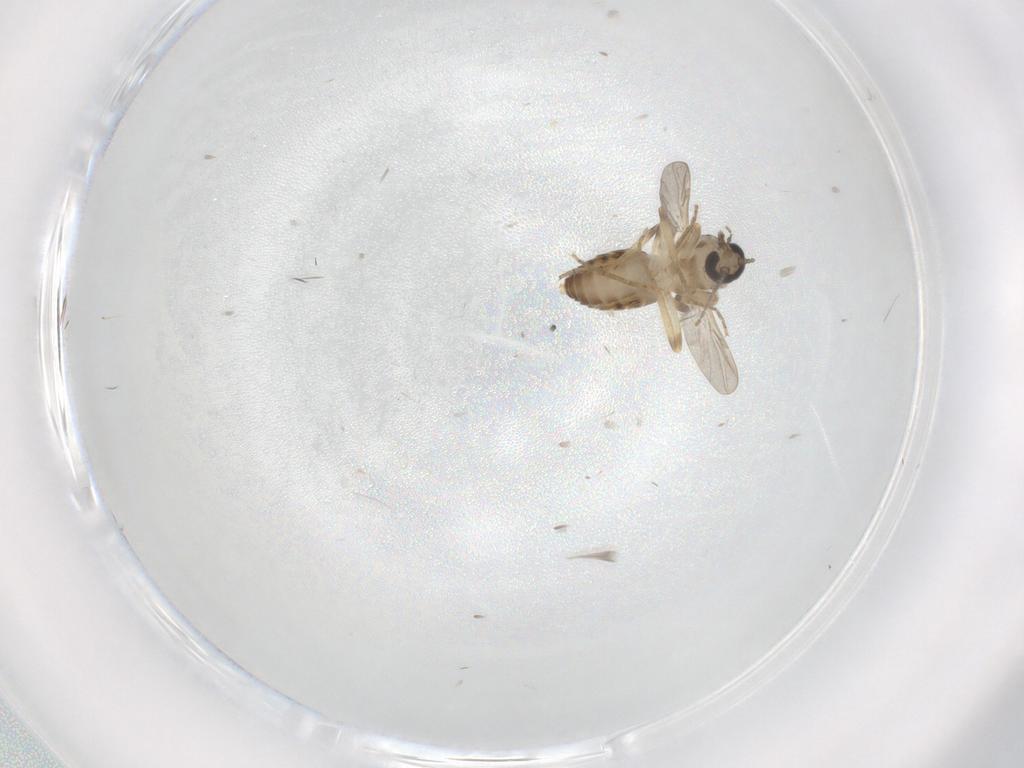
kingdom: Animalia
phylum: Arthropoda
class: Insecta
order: Diptera
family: Ceratopogonidae
